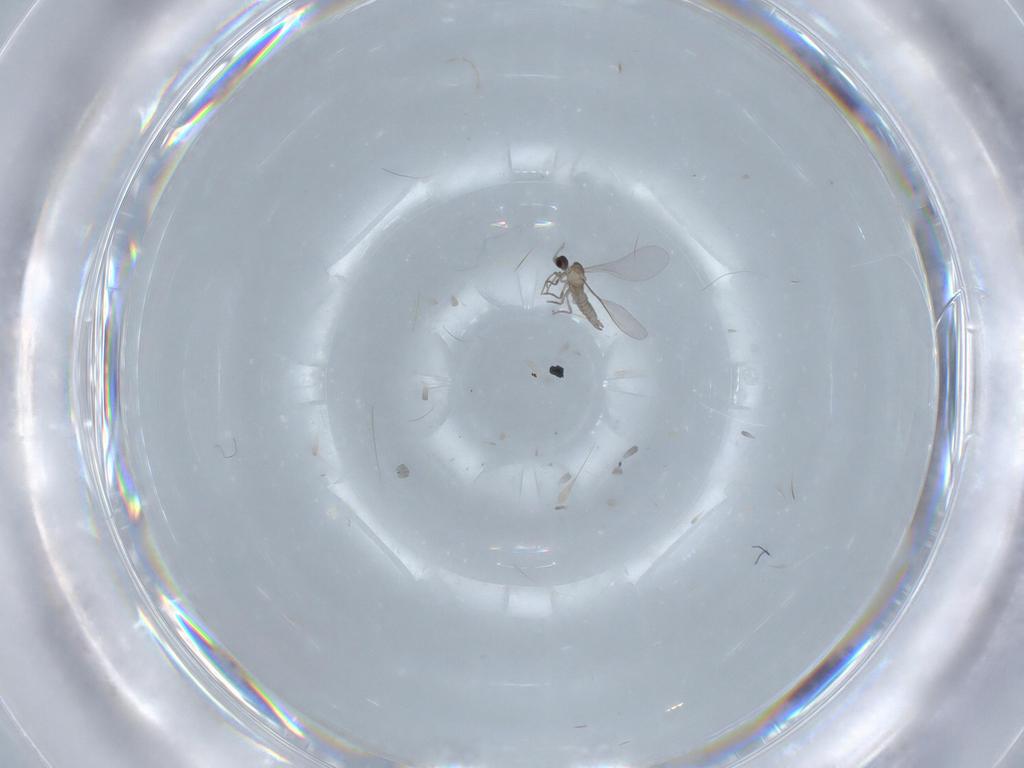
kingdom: Animalia
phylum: Arthropoda
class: Insecta
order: Diptera
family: Cecidomyiidae
